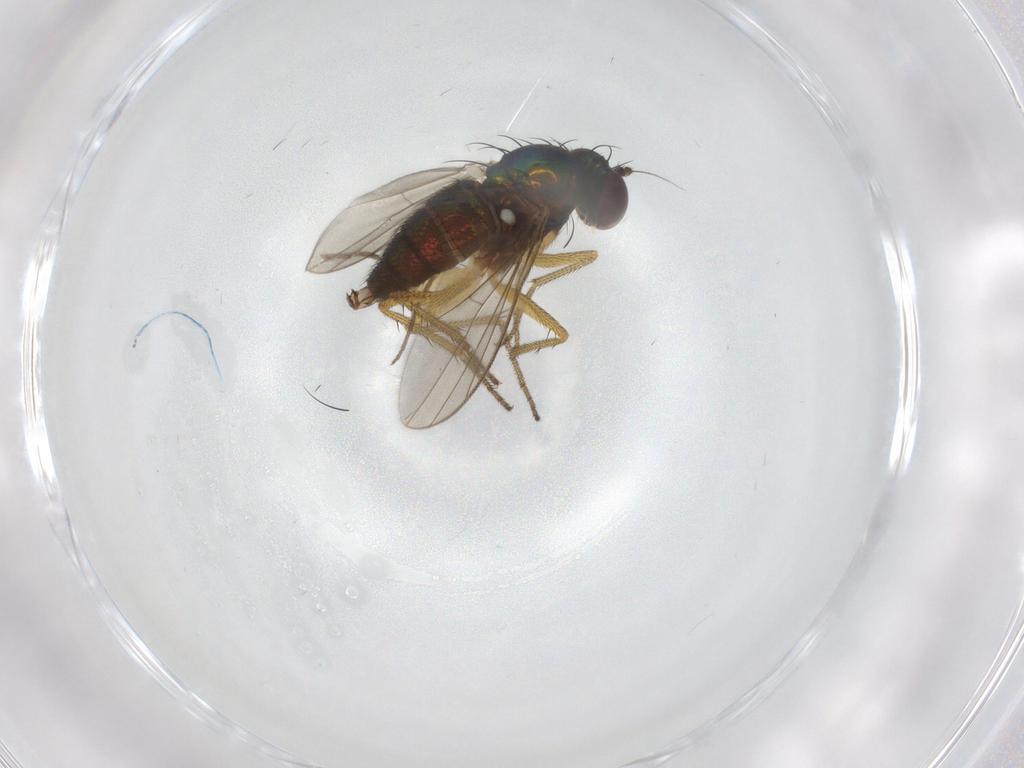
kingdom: Animalia
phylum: Arthropoda
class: Insecta
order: Diptera
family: Chironomidae
